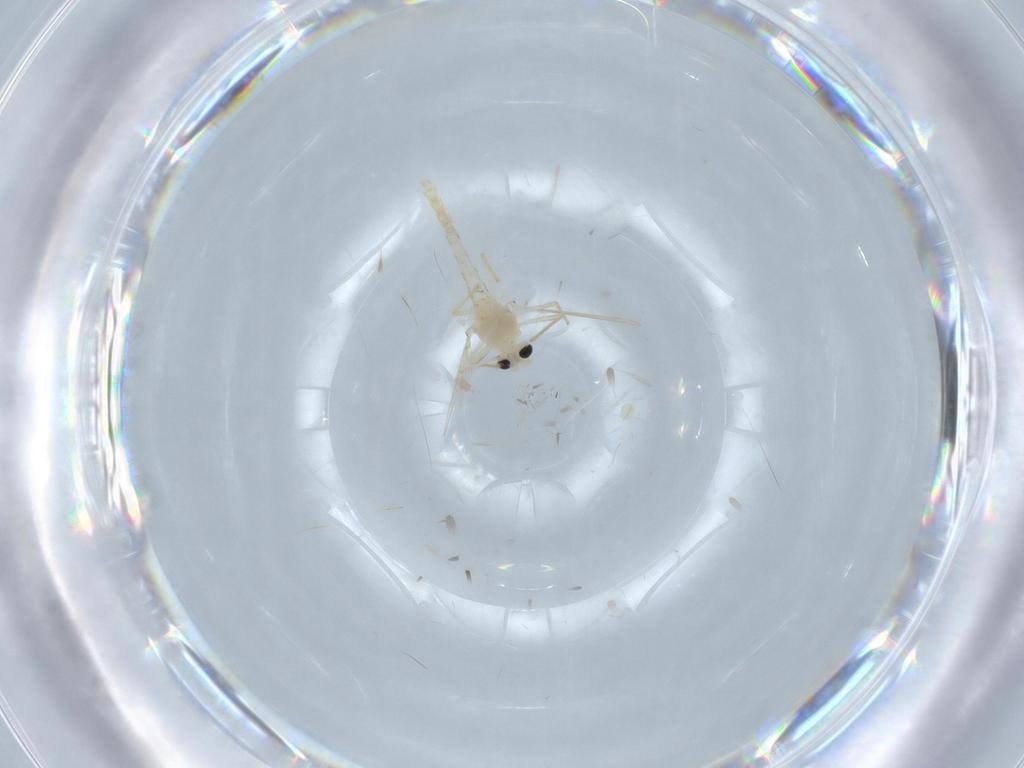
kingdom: Animalia
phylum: Arthropoda
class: Insecta
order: Diptera
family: Chironomidae
